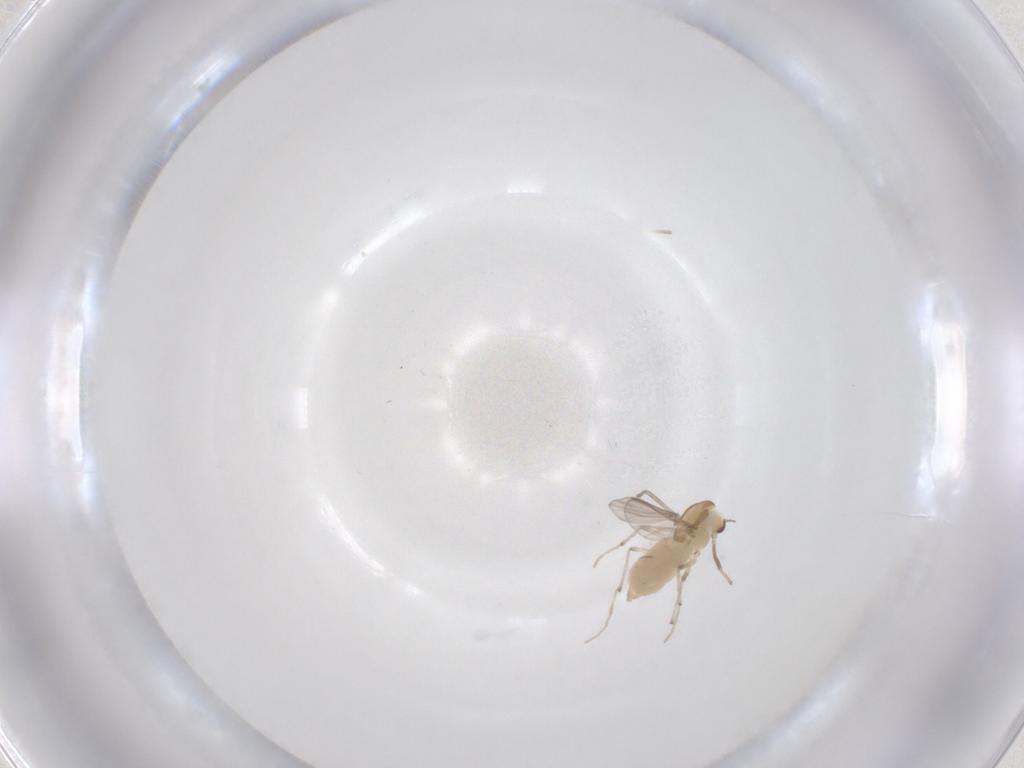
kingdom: Animalia
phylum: Arthropoda
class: Insecta
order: Diptera
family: Chironomidae
